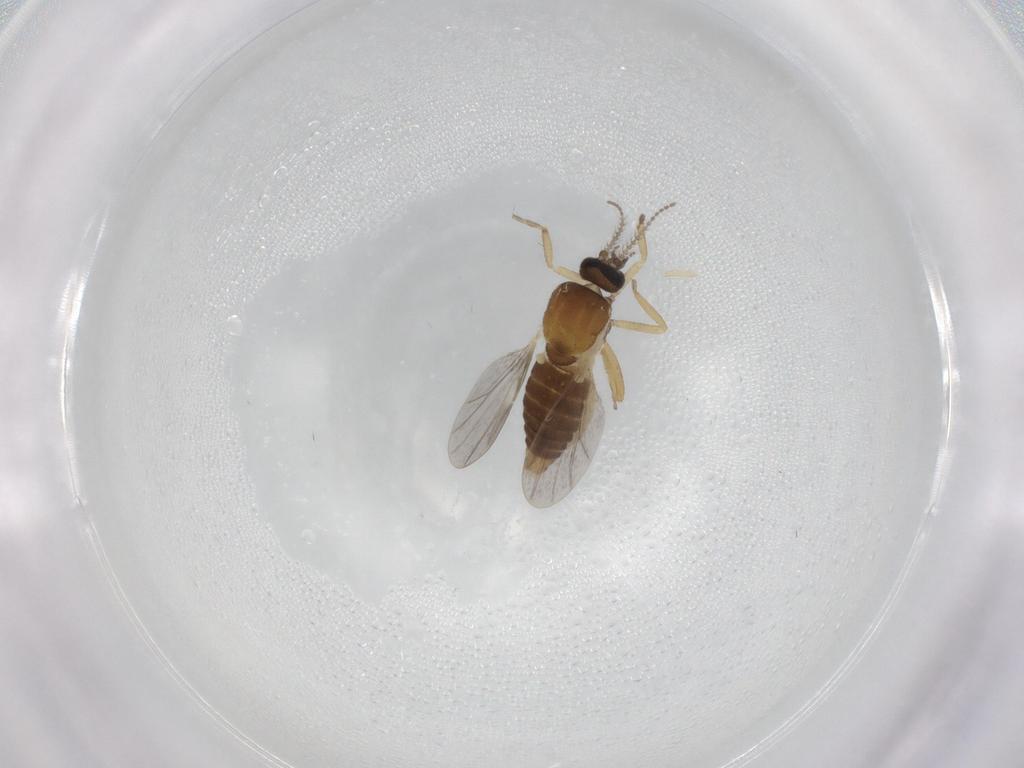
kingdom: Animalia
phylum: Arthropoda
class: Insecta
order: Diptera
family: Ceratopogonidae
